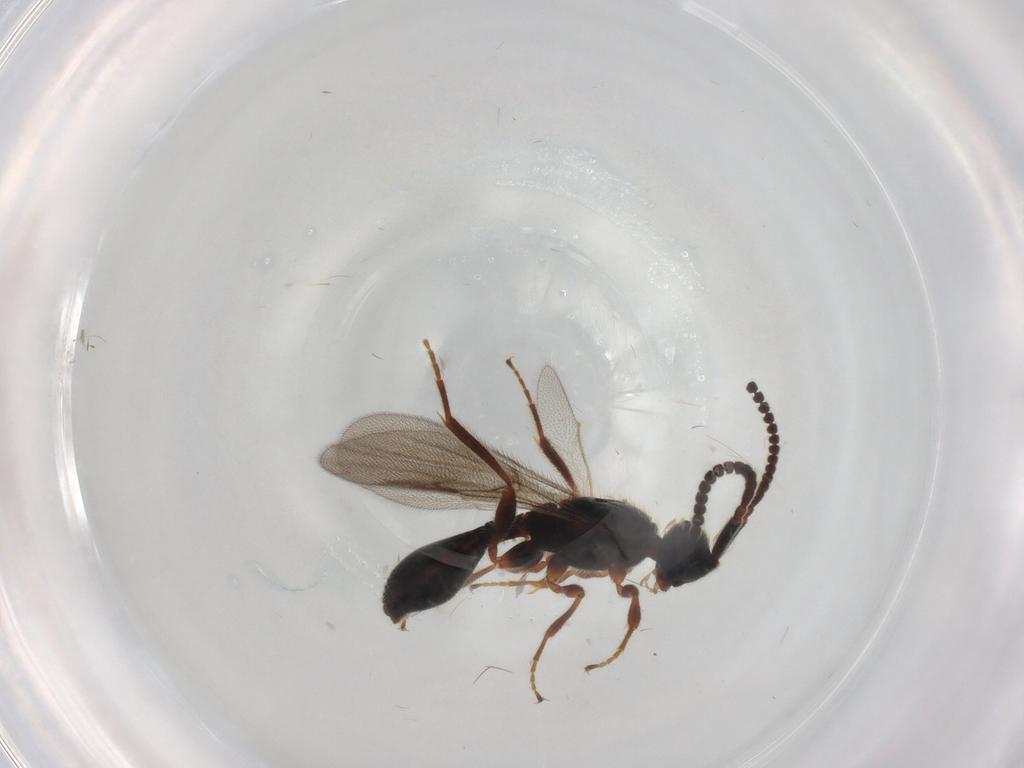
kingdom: Animalia
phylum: Arthropoda
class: Insecta
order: Hymenoptera
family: Diapriidae
